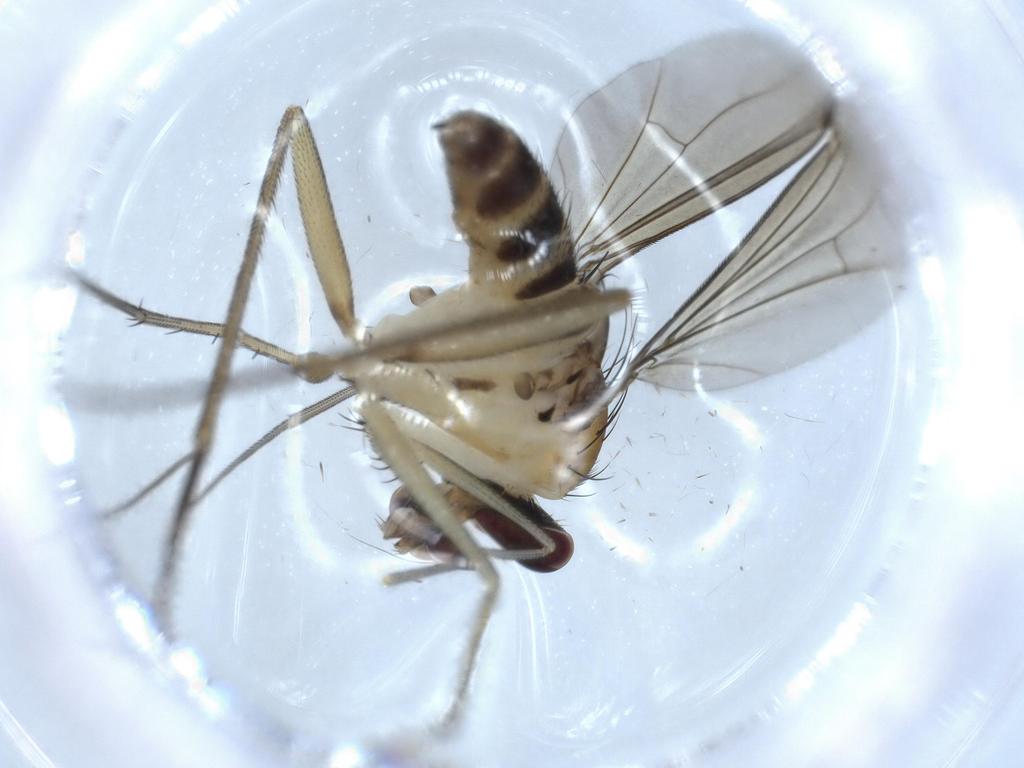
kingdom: Animalia
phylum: Arthropoda
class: Insecta
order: Diptera
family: Dolichopodidae
